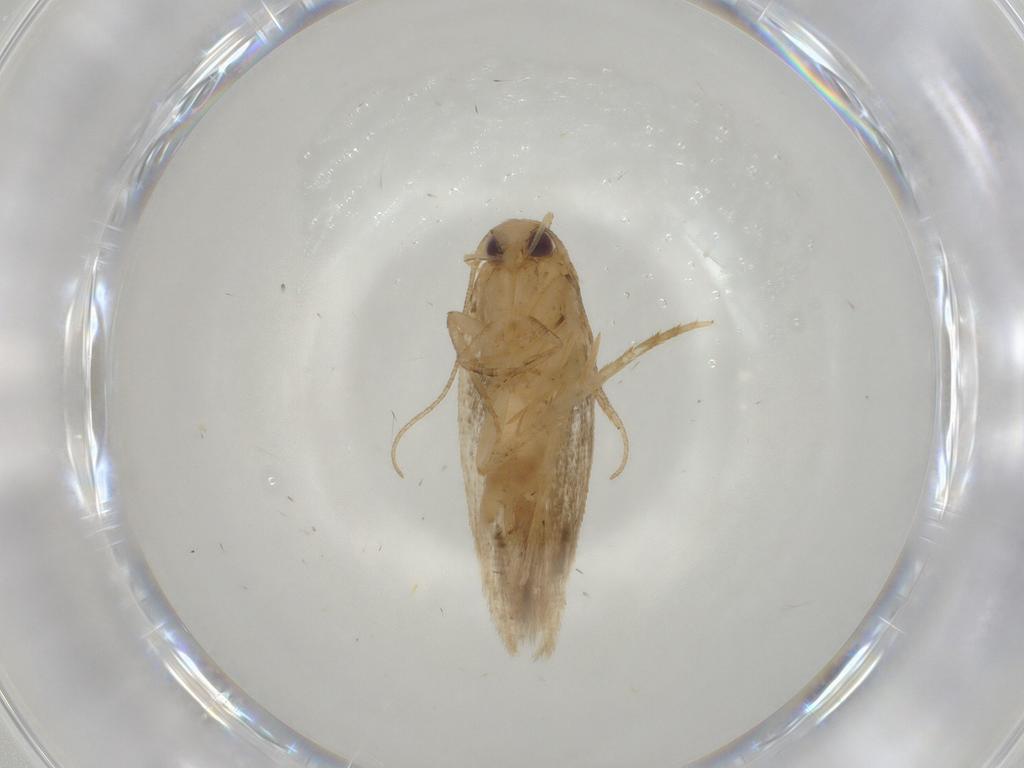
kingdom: Animalia
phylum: Arthropoda
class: Insecta
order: Lepidoptera
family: Gelechiidae
